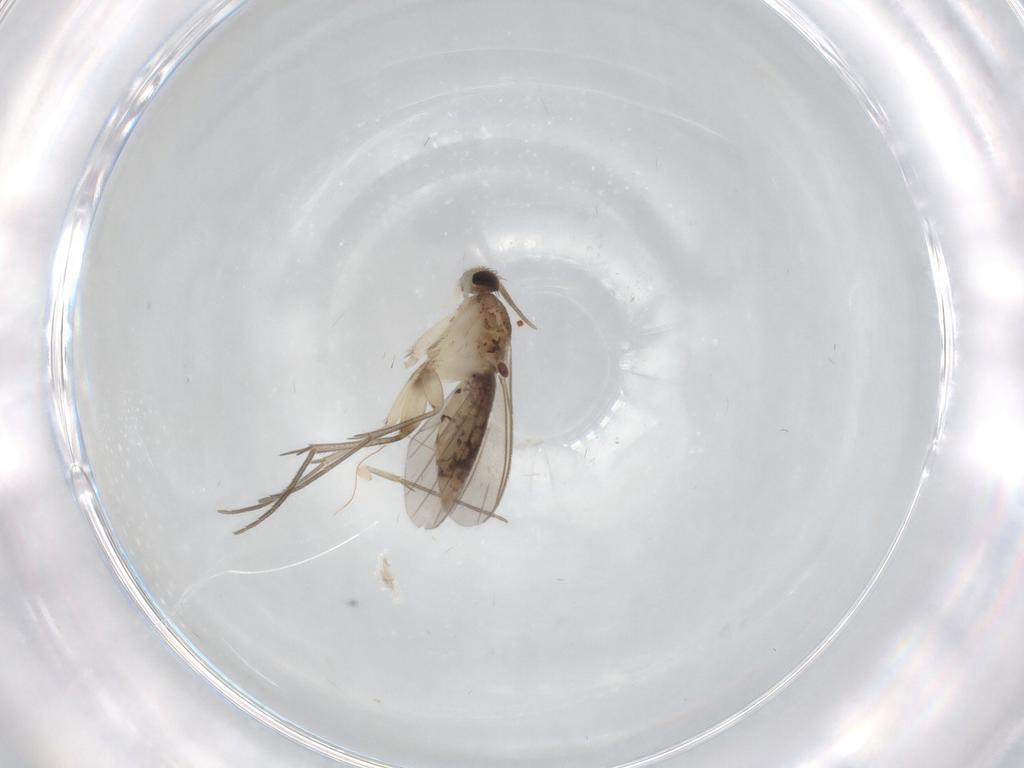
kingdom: Animalia
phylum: Arthropoda
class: Insecta
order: Diptera
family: Mycetophilidae
